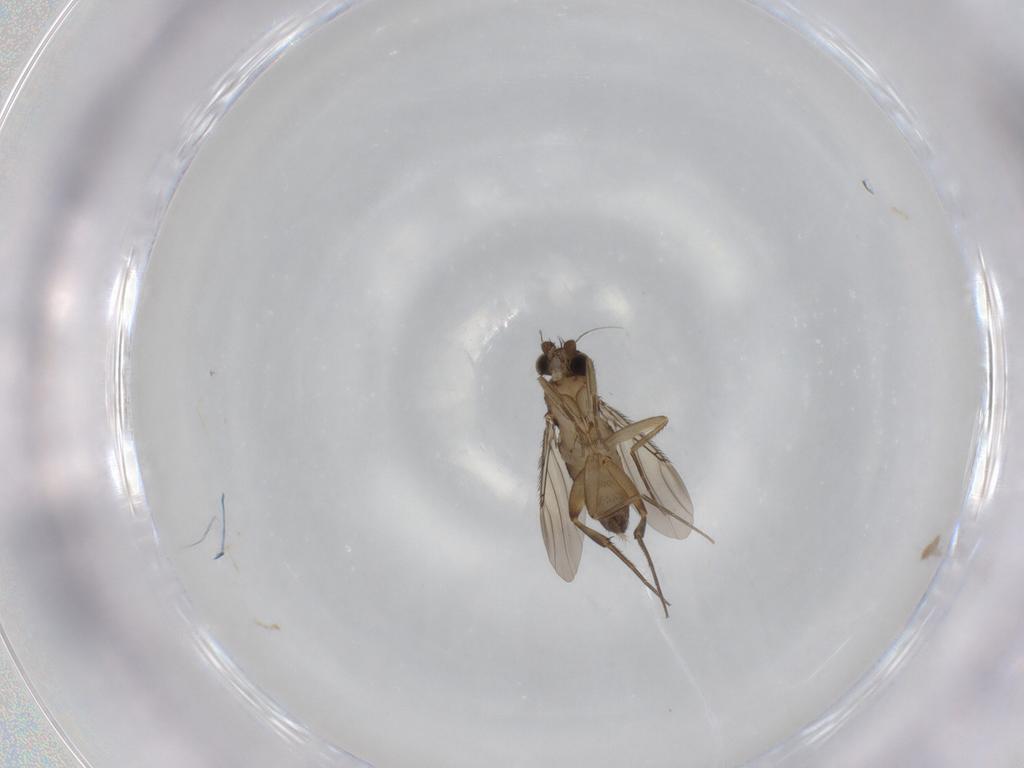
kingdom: Animalia
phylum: Arthropoda
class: Insecta
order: Diptera
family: Phoridae
